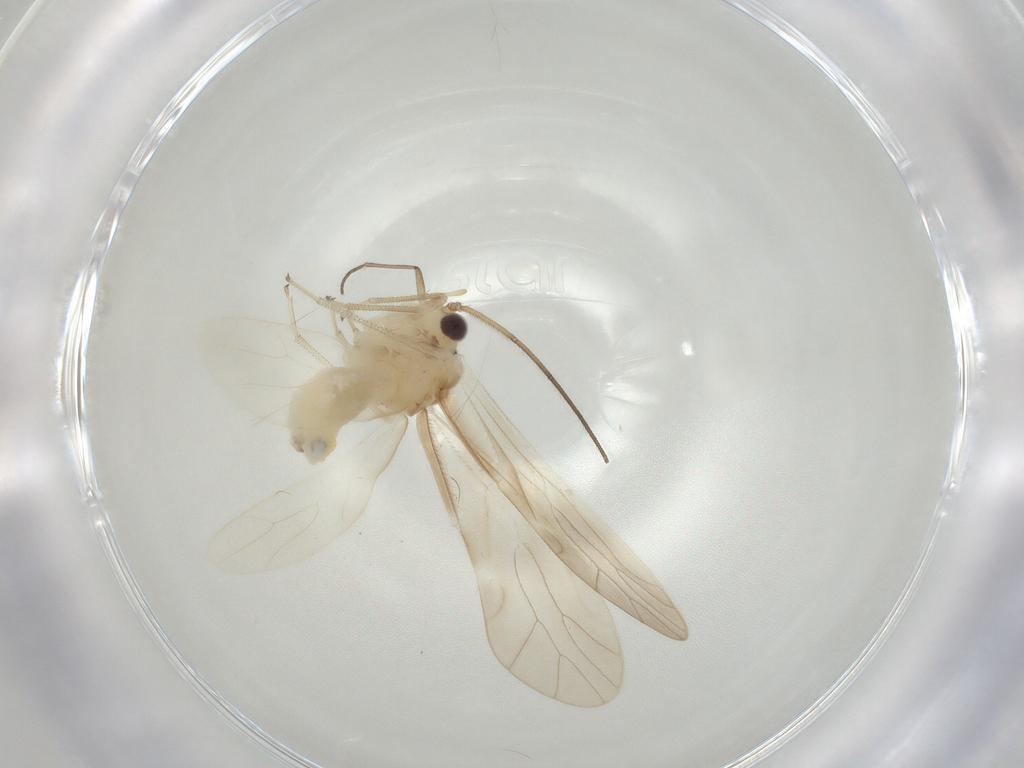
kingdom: Animalia
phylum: Arthropoda
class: Insecta
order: Psocodea
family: Caeciliusidae
